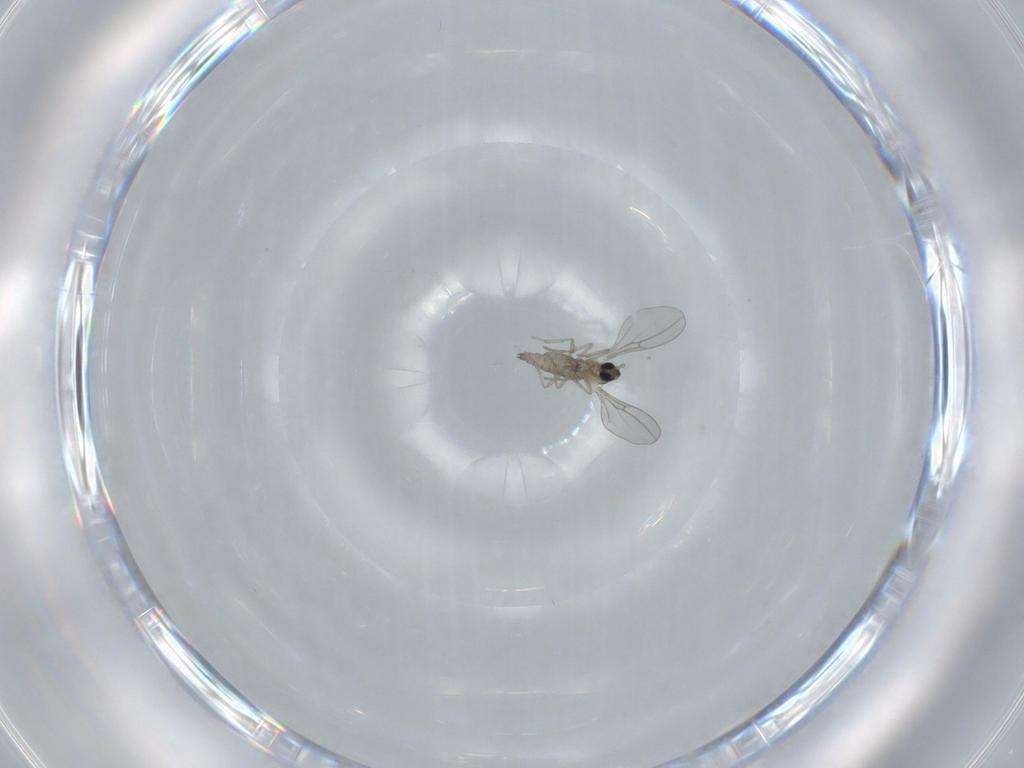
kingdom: Animalia
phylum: Arthropoda
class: Insecta
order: Diptera
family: Cecidomyiidae
